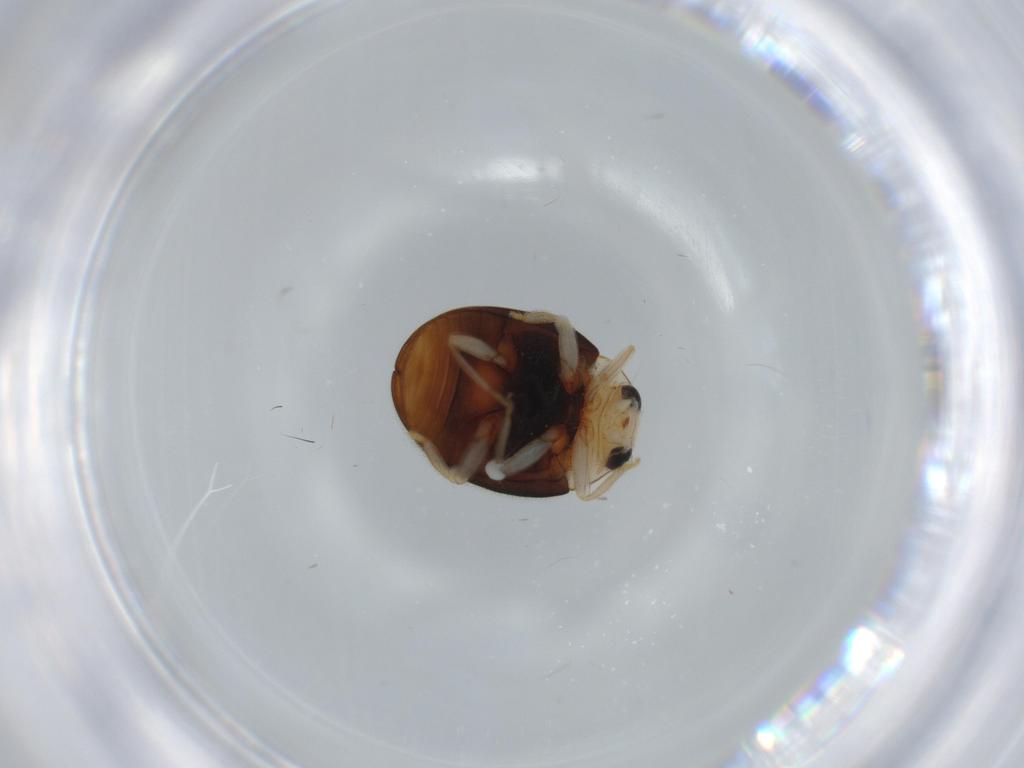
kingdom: Animalia
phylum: Arthropoda
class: Insecta
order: Coleoptera
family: Coccinellidae
